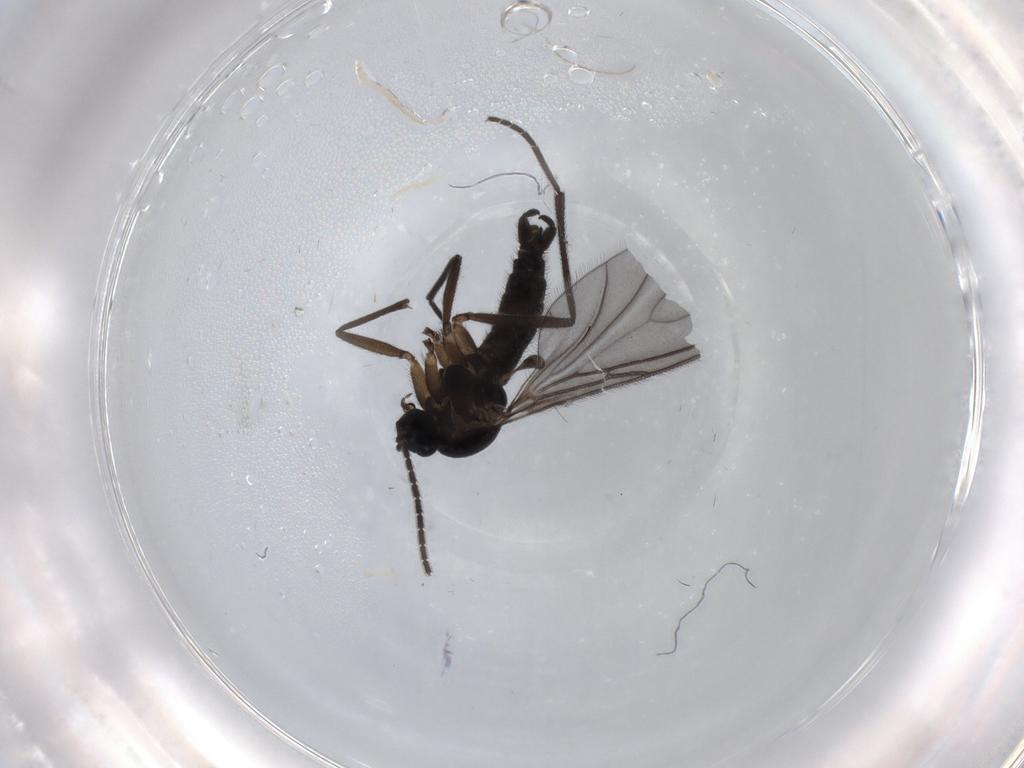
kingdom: Animalia
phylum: Arthropoda
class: Insecta
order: Diptera
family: Sciaridae
